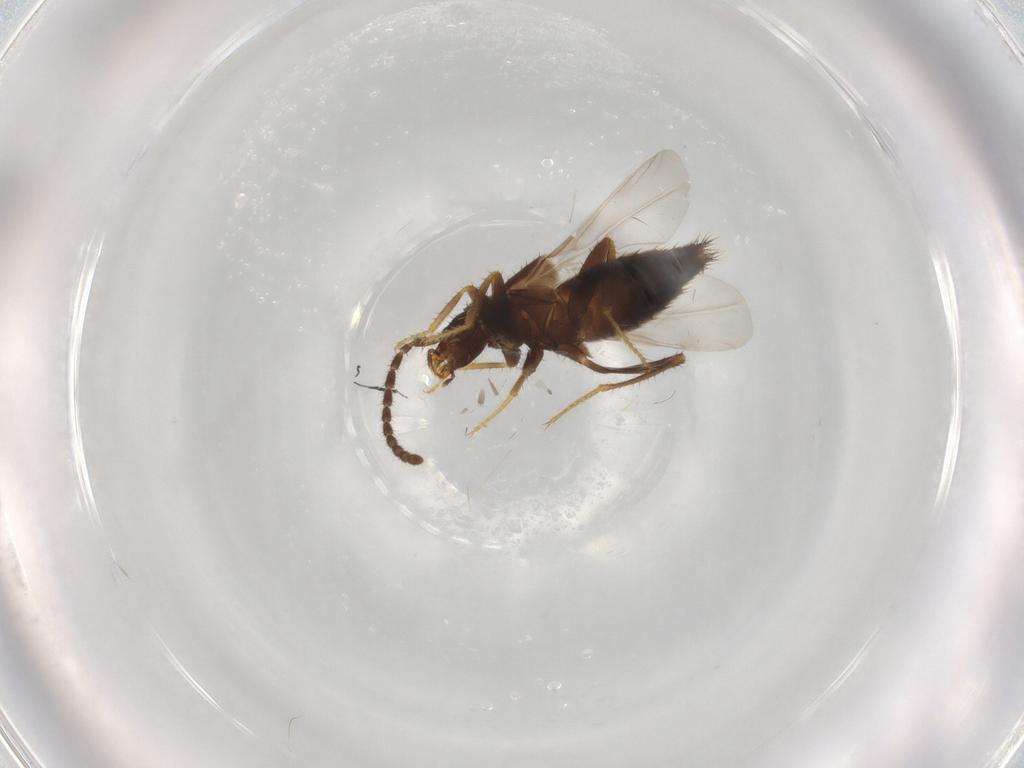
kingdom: Animalia
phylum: Arthropoda
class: Insecta
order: Coleoptera
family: Staphylinidae
